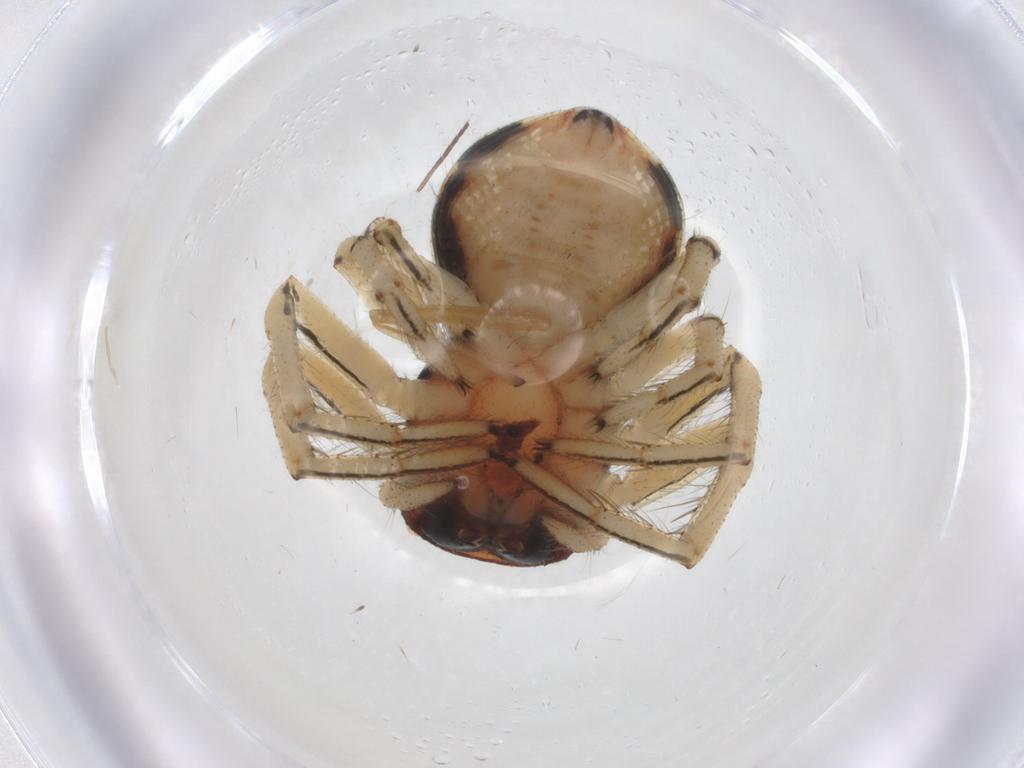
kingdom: Animalia
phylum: Arthropoda
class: Arachnida
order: Araneae
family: Thomisidae
